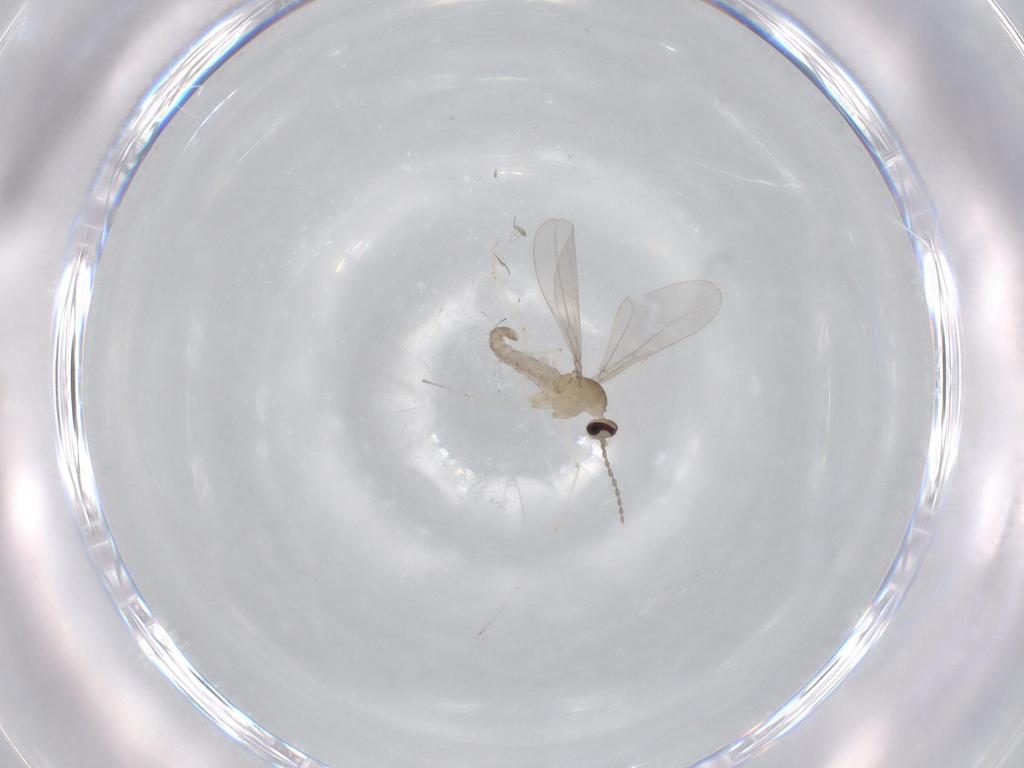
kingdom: Animalia
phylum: Arthropoda
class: Insecta
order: Diptera
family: Cecidomyiidae
